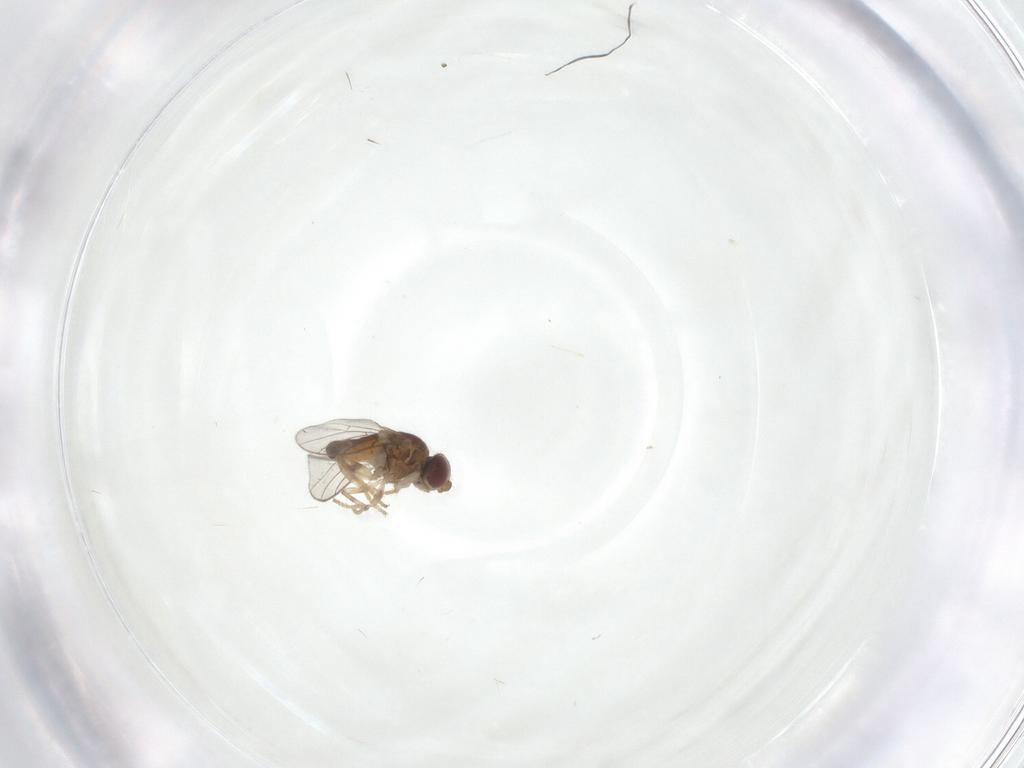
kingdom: Animalia
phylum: Arthropoda
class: Insecta
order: Diptera
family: Chloropidae
